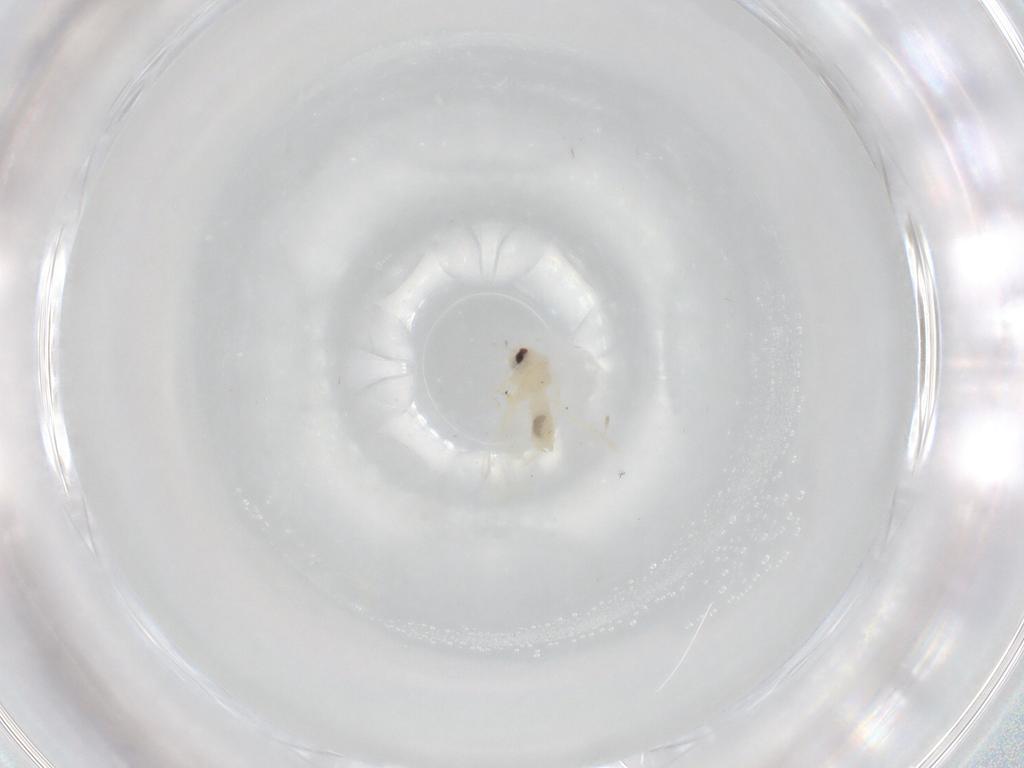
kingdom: Animalia
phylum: Arthropoda
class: Insecta
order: Hemiptera
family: Aleyrodidae
